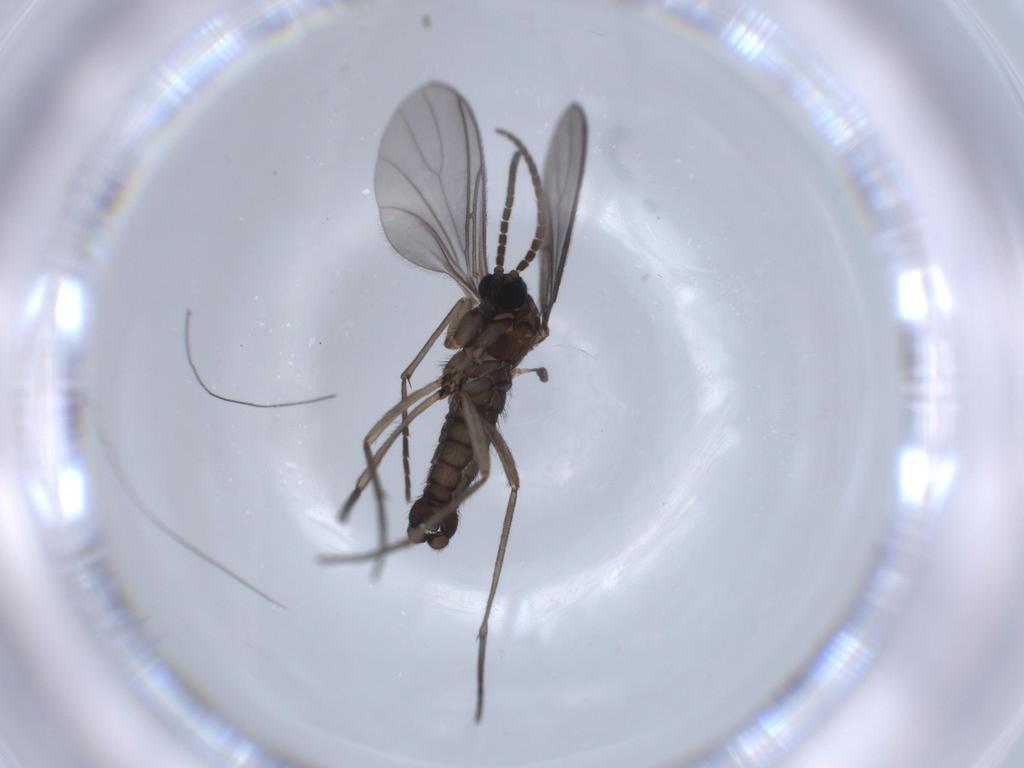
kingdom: Animalia
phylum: Arthropoda
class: Insecta
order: Diptera
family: Sciaridae
